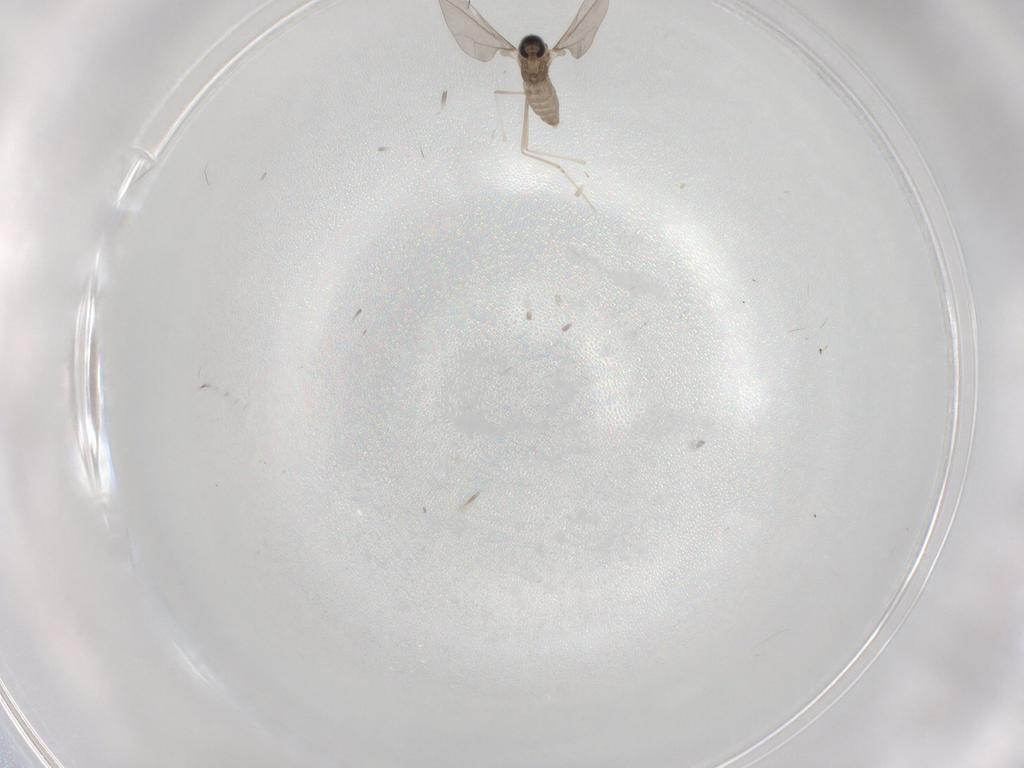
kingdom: Animalia
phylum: Arthropoda
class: Insecta
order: Diptera
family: Cecidomyiidae
